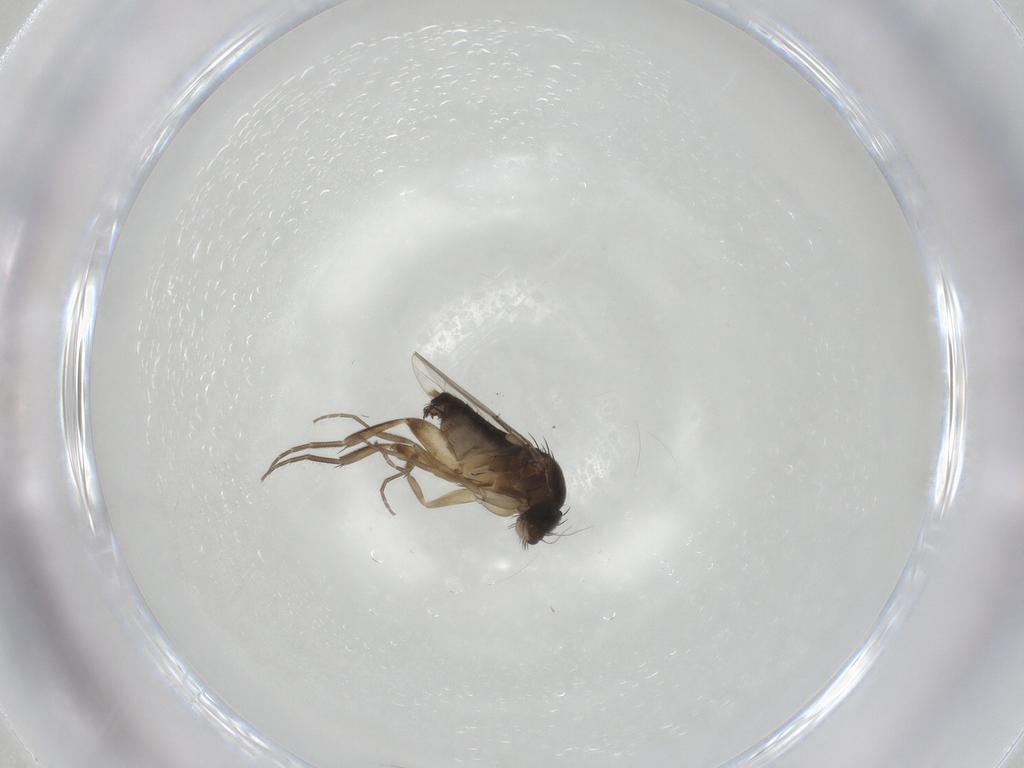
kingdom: Animalia
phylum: Arthropoda
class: Insecta
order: Diptera
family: Phoridae
